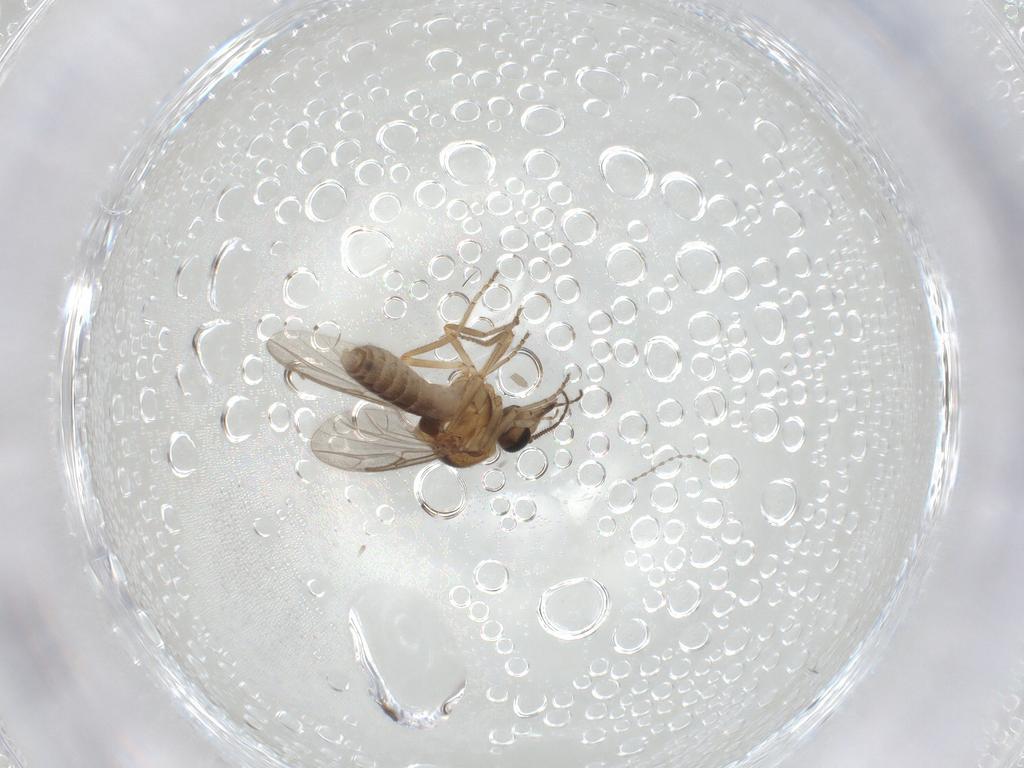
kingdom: Animalia
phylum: Arthropoda
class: Insecta
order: Diptera
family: Ceratopogonidae
